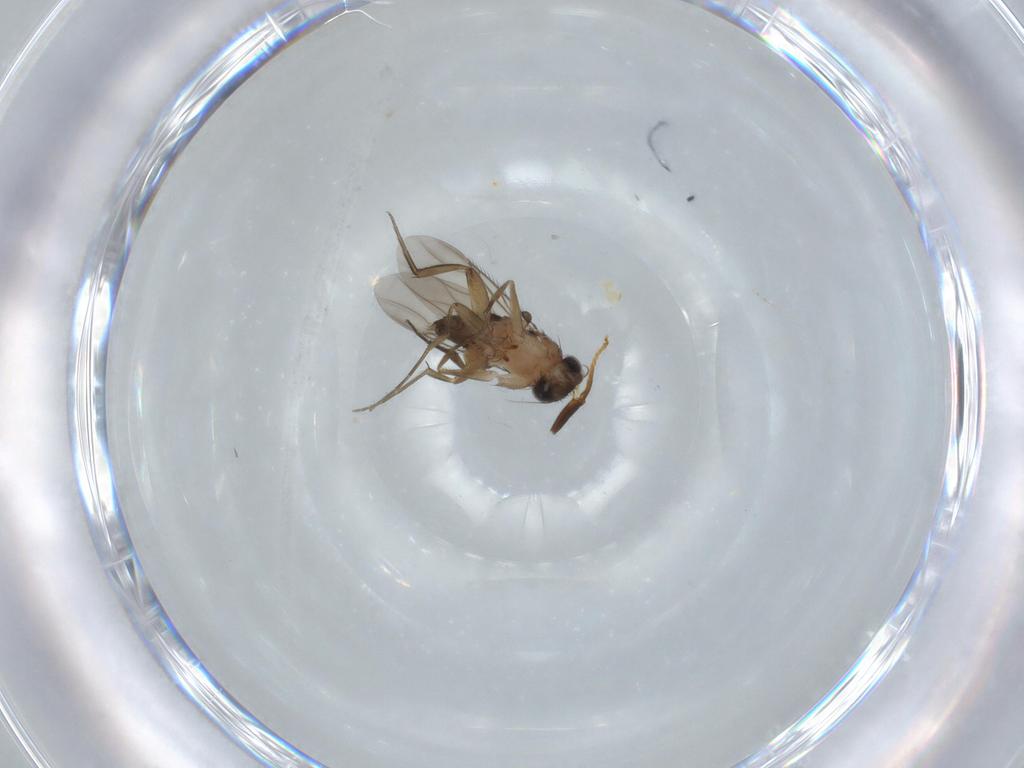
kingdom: Animalia
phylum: Arthropoda
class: Insecta
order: Diptera
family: Phoridae
